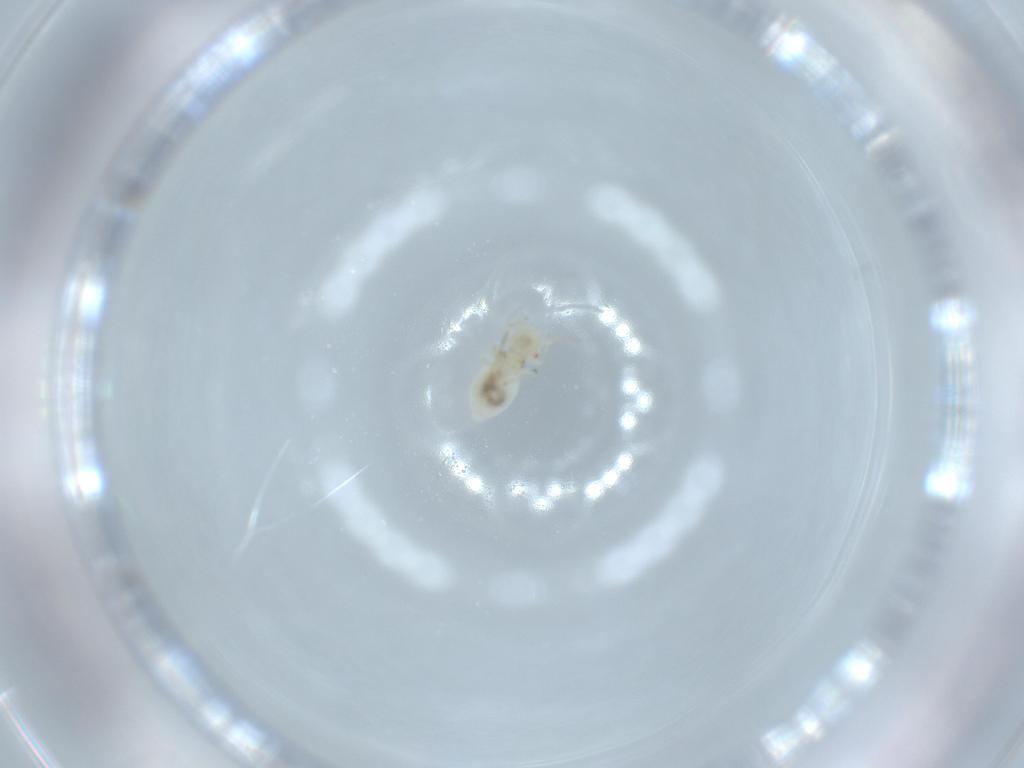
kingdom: Animalia
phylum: Arthropoda
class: Insecta
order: Psocodea
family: Caeciliusidae
